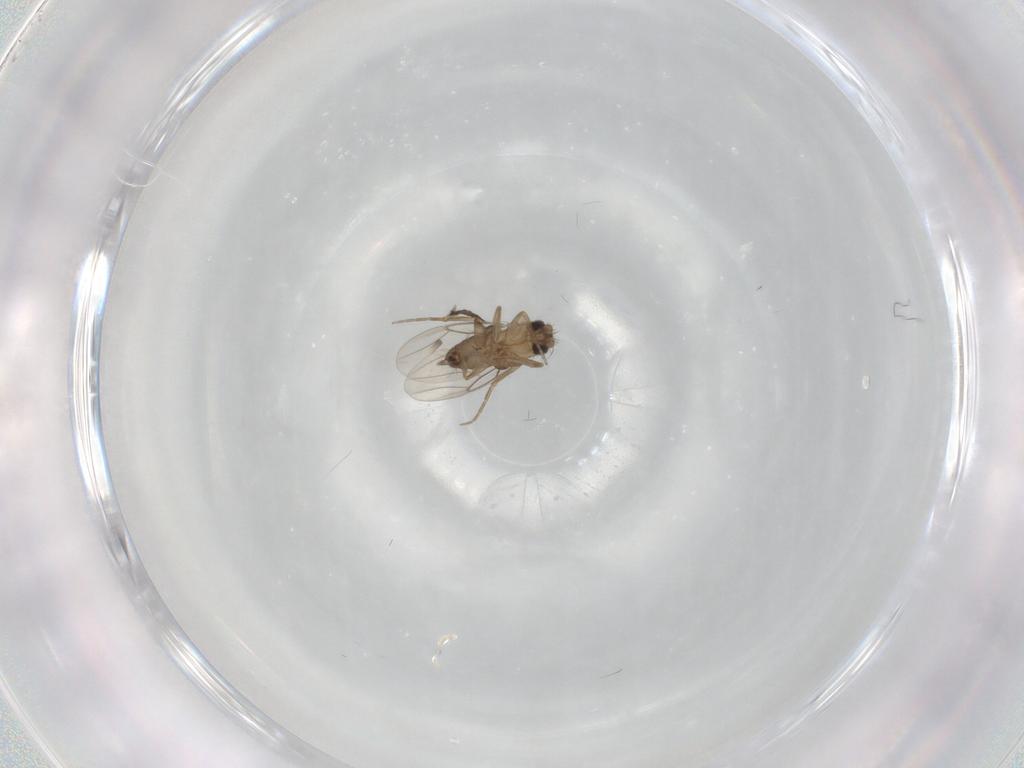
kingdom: Animalia
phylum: Arthropoda
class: Insecta
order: Diptera
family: Phoridae
